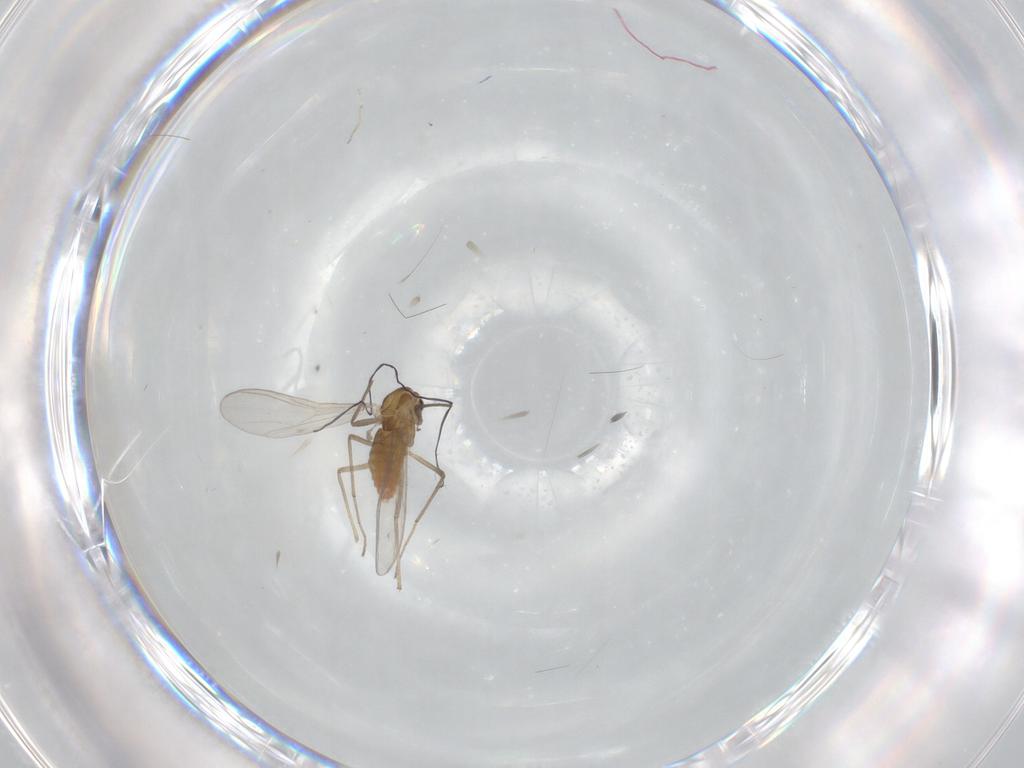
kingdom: Animalia
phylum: Arthropoda
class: Insecta
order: Diptera
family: Chironomidae
